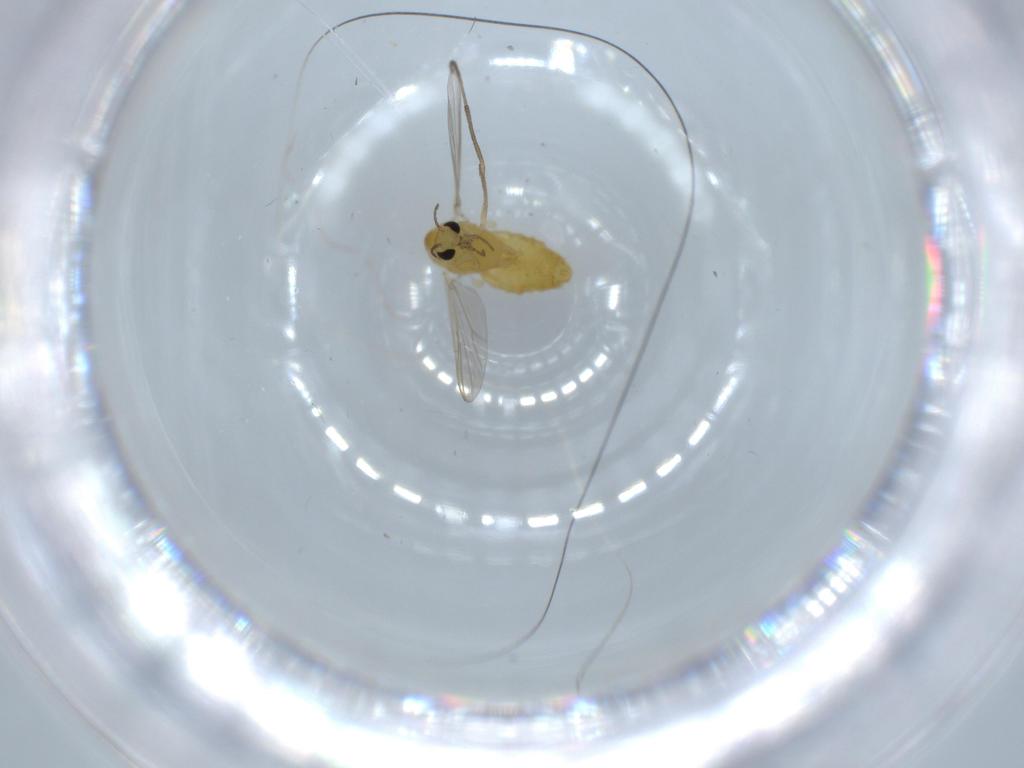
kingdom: Animalia
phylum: Arthropoda
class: Insecta
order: Diptera
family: Chironomidae
